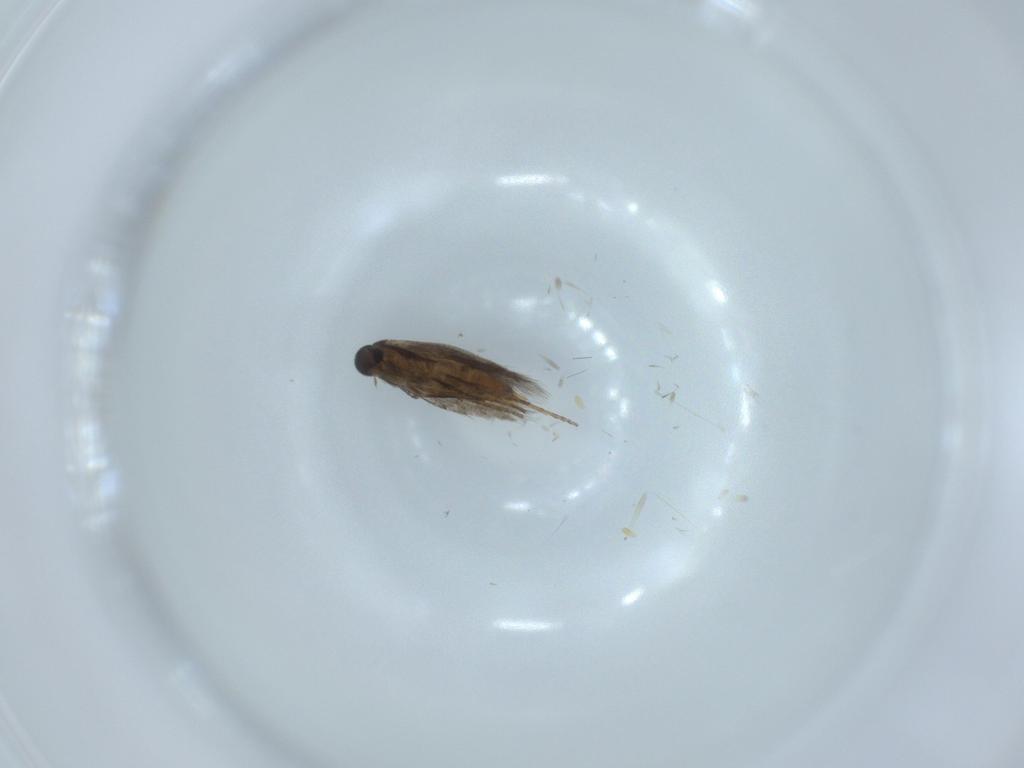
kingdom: Animalia
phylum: Arthropoda
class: Insecta
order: Lepidoptera
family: Heliozelidae
